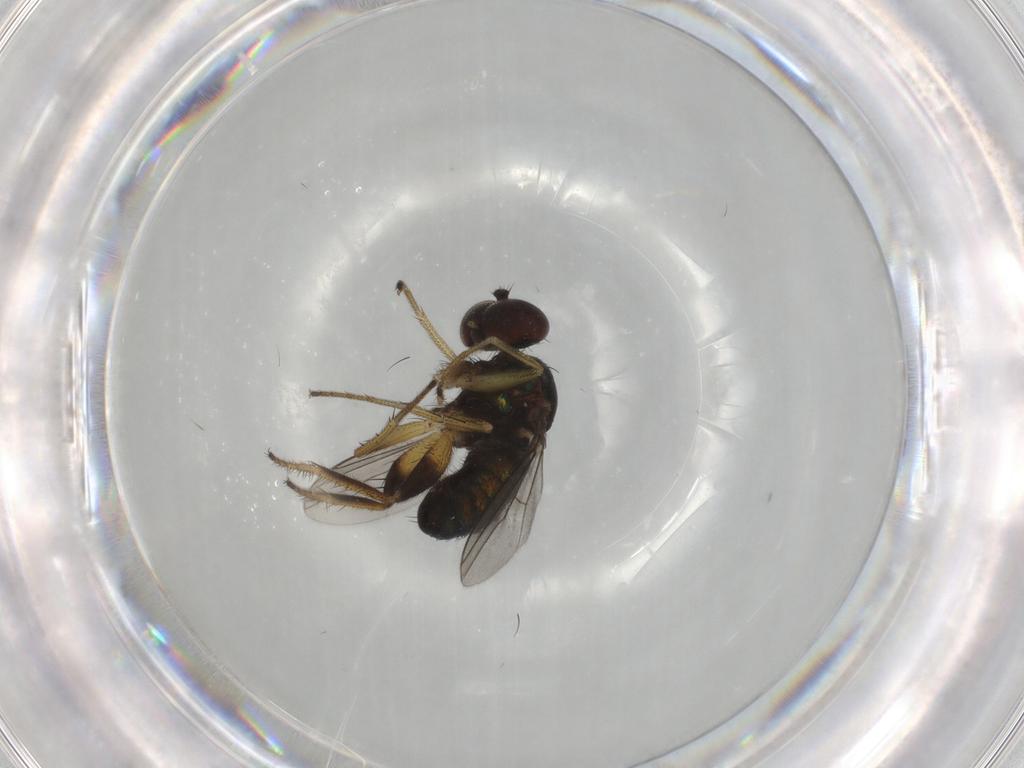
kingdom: Animalia
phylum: Arthropoda
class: Insecta
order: Diptera
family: Dolichopodidae
